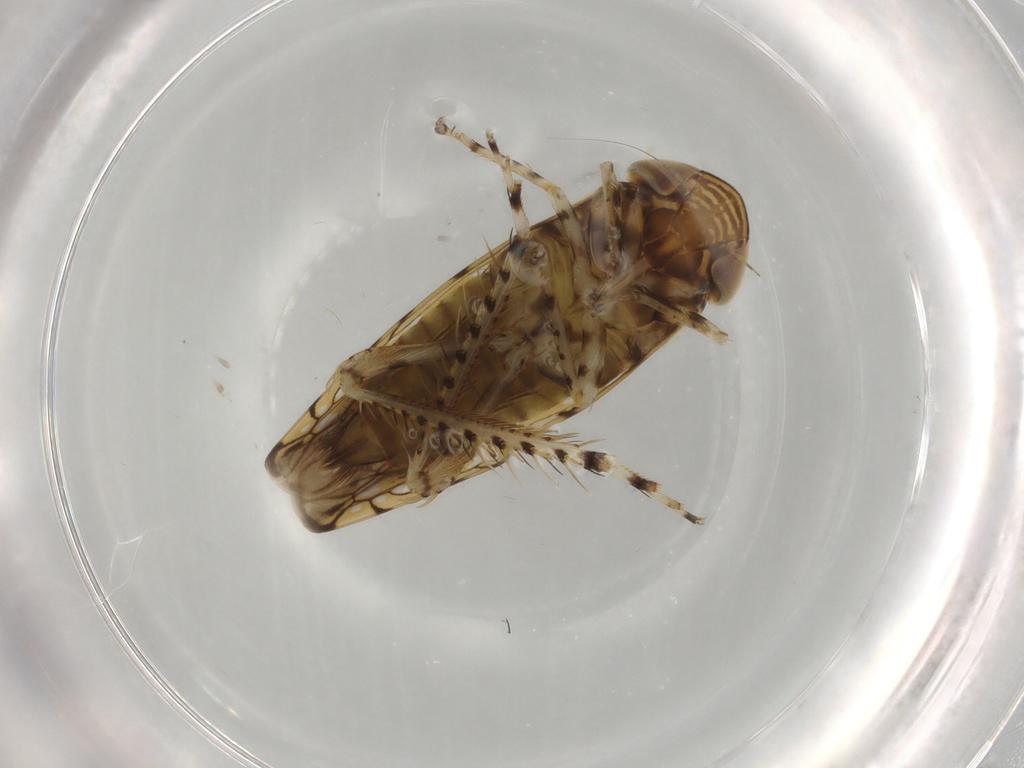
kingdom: Animalia
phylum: Arthropoda
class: Insecta
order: Hemiptera
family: Cicadellidae
